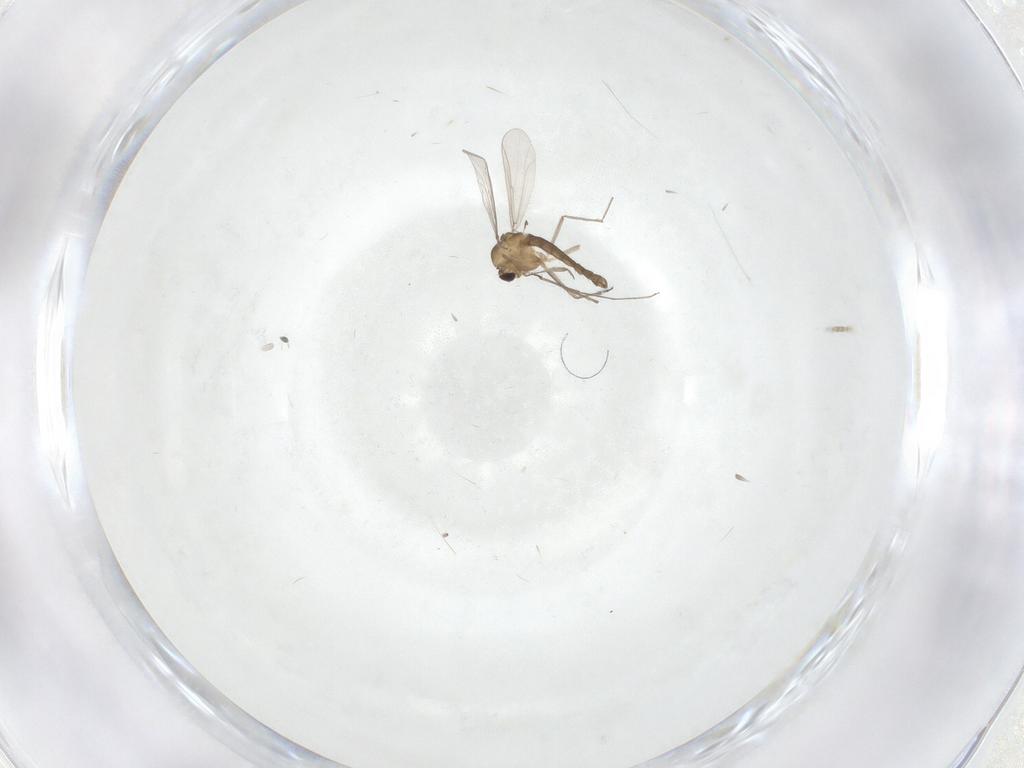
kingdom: Animalia
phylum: Arthropoda
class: Insecta
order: Diptera
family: Chironomidae
